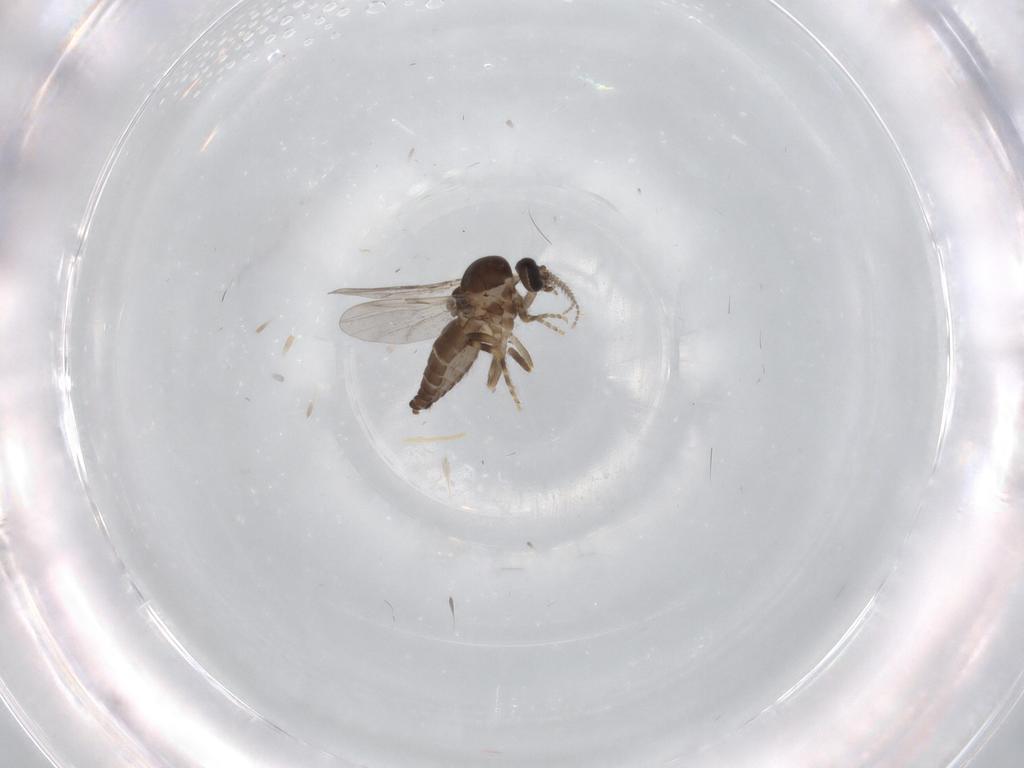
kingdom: Animalia
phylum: Arthropoda
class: Insecta
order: Diptera
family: Ceratopogonidae
